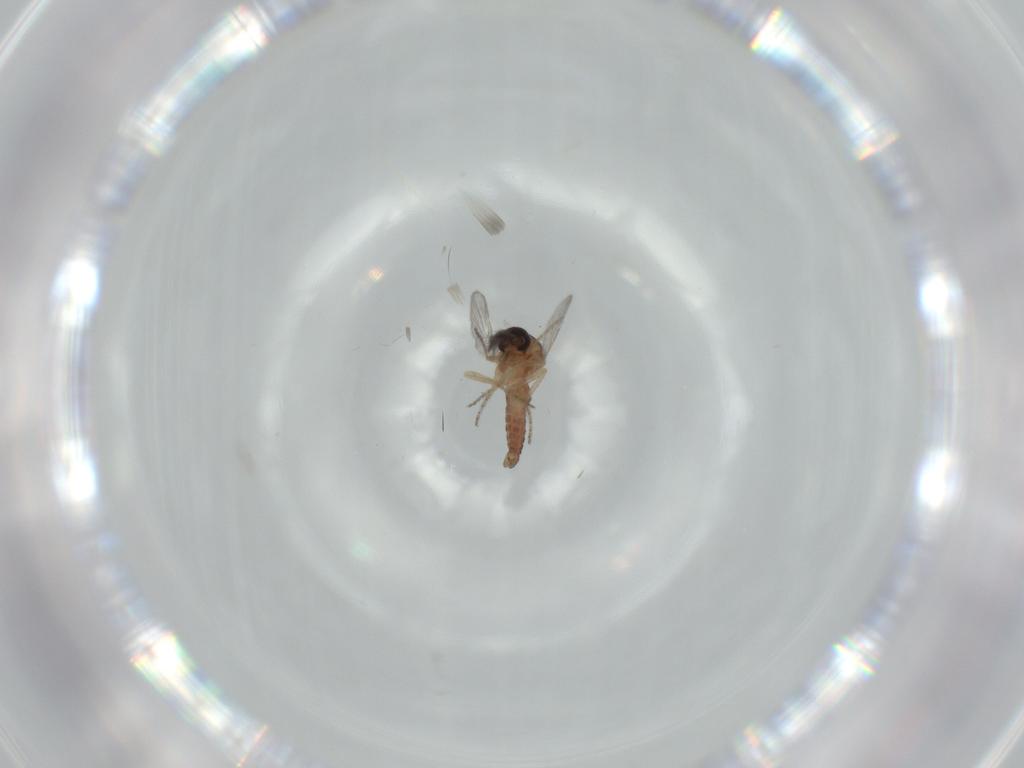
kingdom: Animalia
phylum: Arthropoda
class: Insecta
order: Diptera
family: Ceratopogonidae
